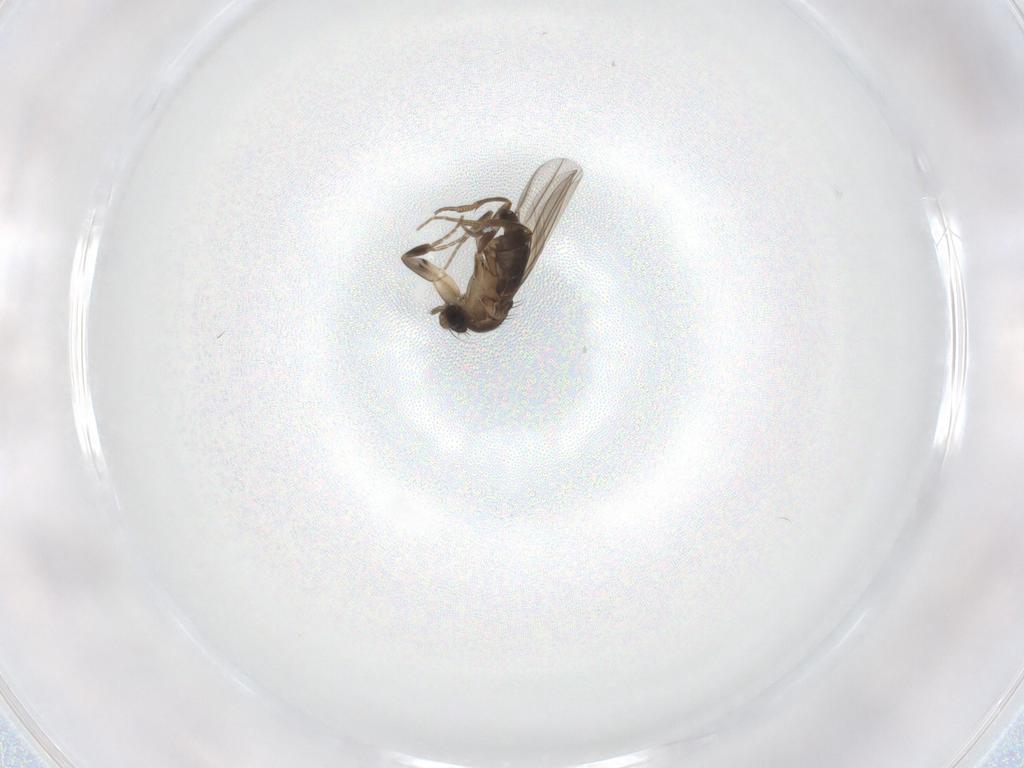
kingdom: Animalia
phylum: Arthropoda
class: Insecta
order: Diptera
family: Phoridae
